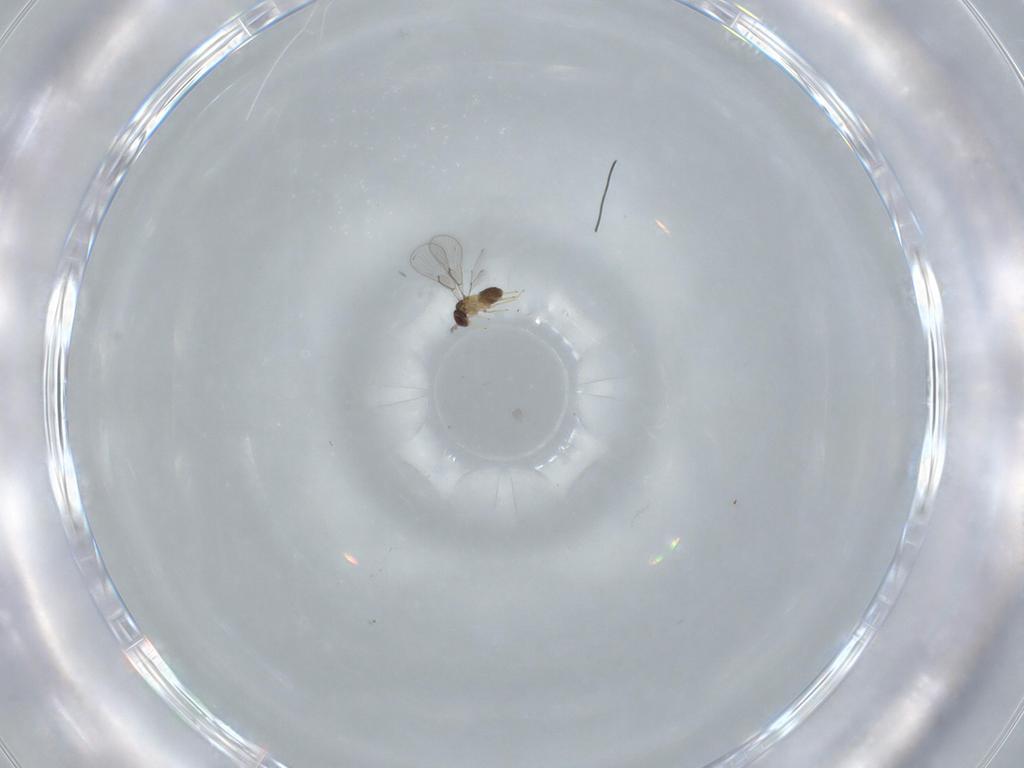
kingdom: Animalia
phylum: Arthropoda
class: Insecta
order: Hymenoptera
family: Trichogrammatidae
